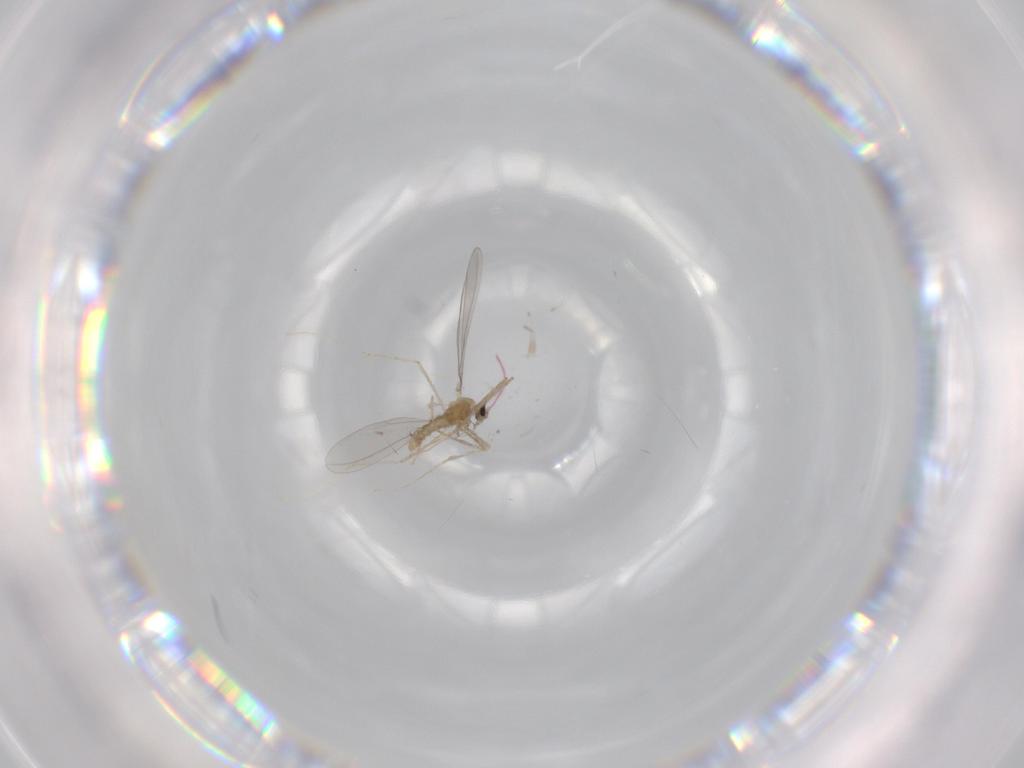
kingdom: Animalia
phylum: Arthropoda
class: Insecta
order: Diptera
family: Cecidomyiidae
